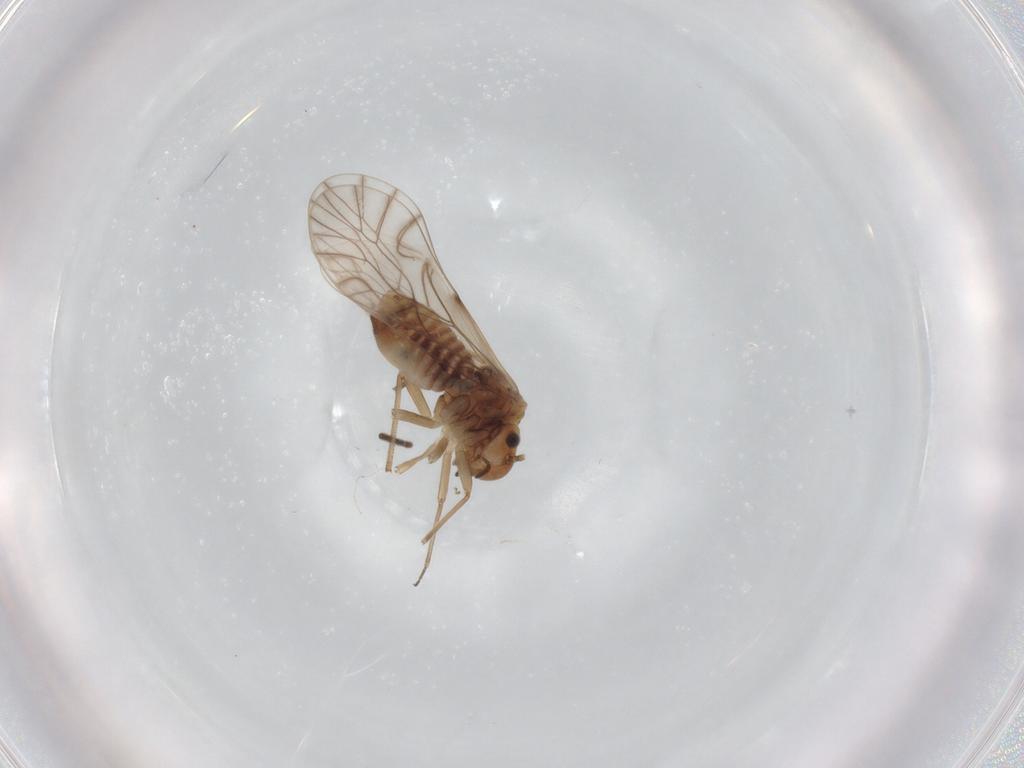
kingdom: Animalia
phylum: Arthropoda
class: Insecta
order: Psocodea
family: Lachesillidae
